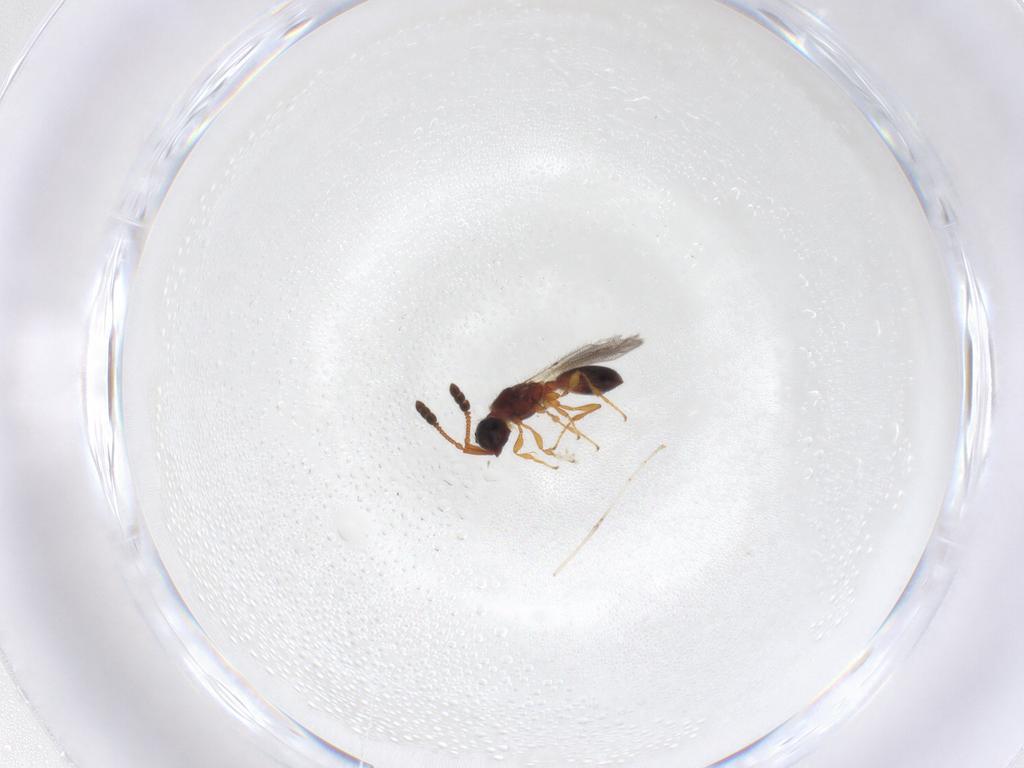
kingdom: Animalia
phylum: Arthropoda
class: Insecta
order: Hymenoptera
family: Diapriidae
